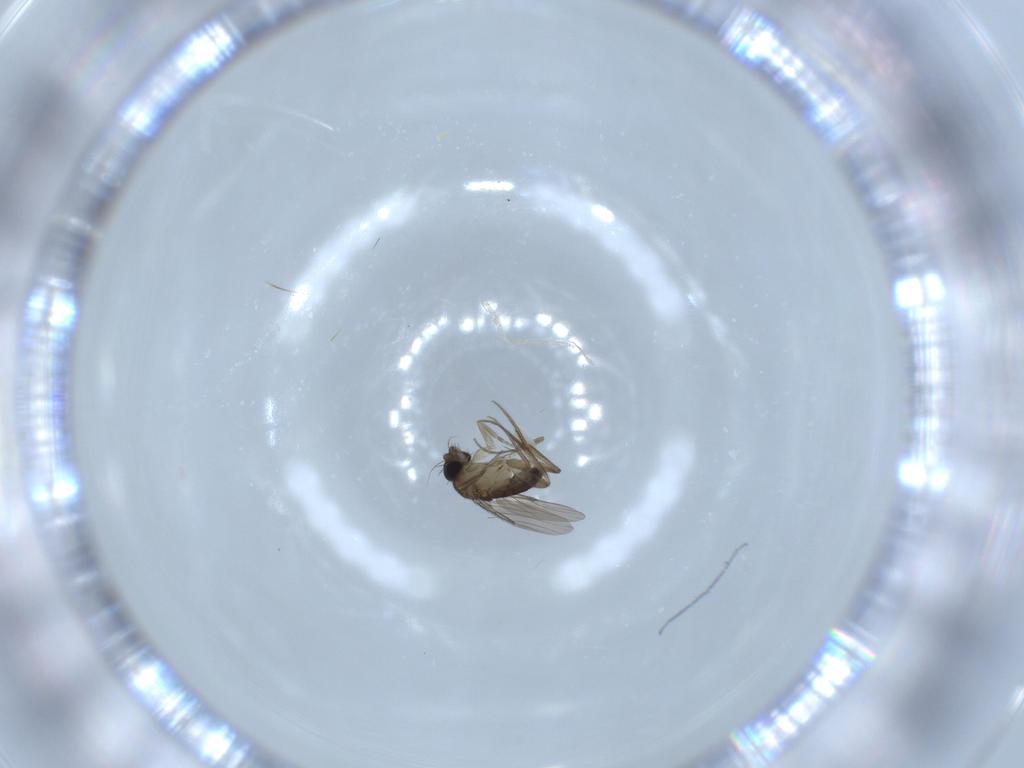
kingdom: Animalia
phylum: Arthropoda
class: Insecta
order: Diptera
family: Phoridae
